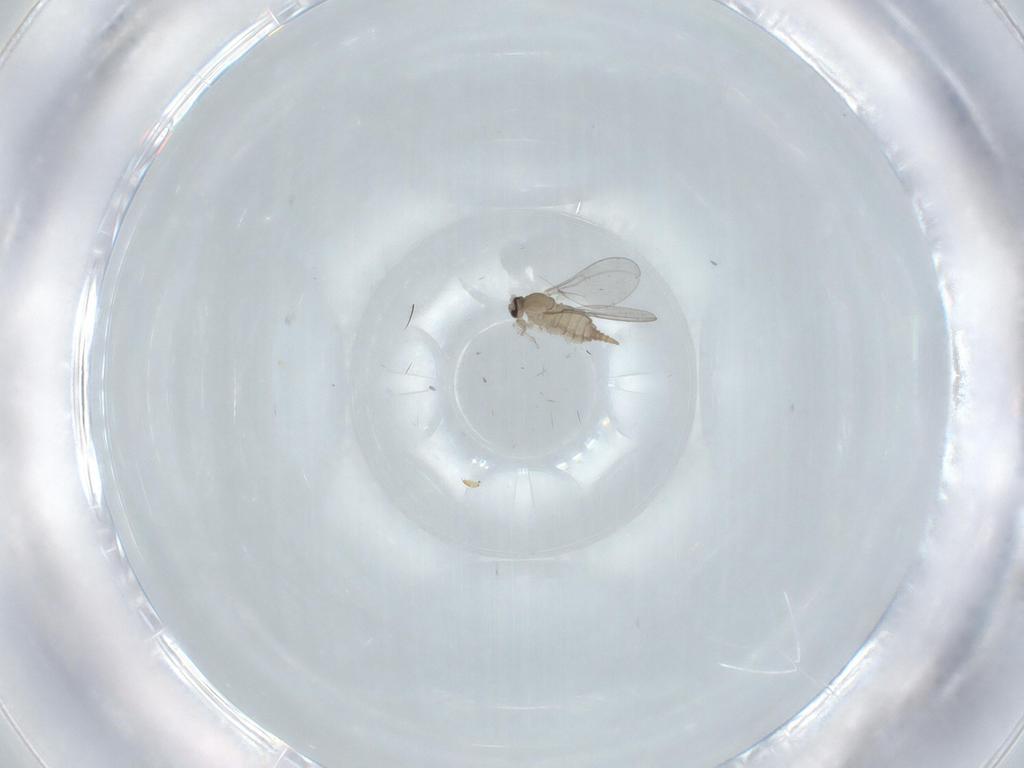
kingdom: Animalia
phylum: Arthropoda
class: Insecta
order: Diptera
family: Cecidomyiidae
